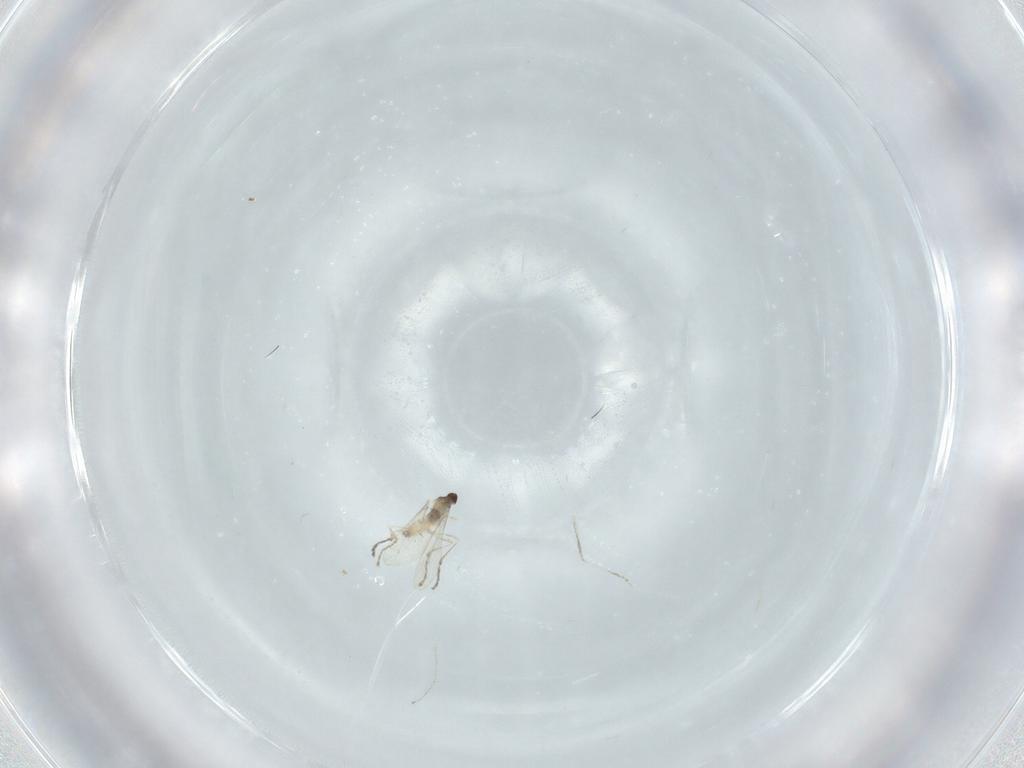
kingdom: Animalia
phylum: Arthropoda
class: Insecta
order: Diptera
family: Cecidomyiidae
